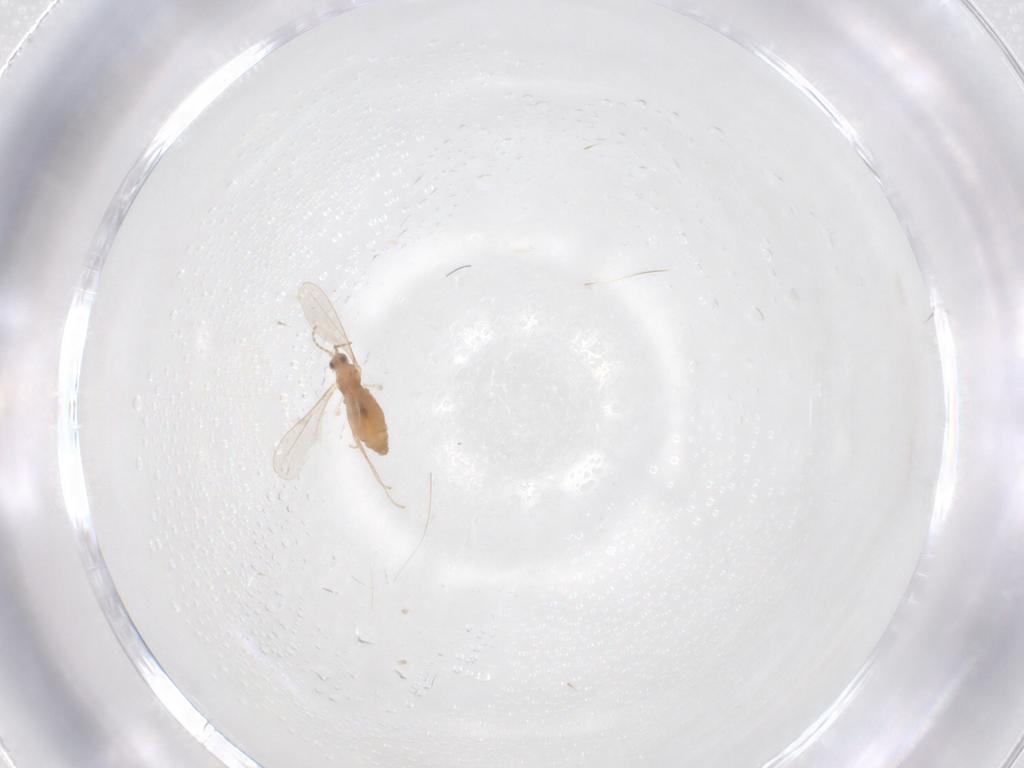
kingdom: Animalia
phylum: Arthropoda
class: Insecta
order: Diptera
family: Cecidomyiidae
